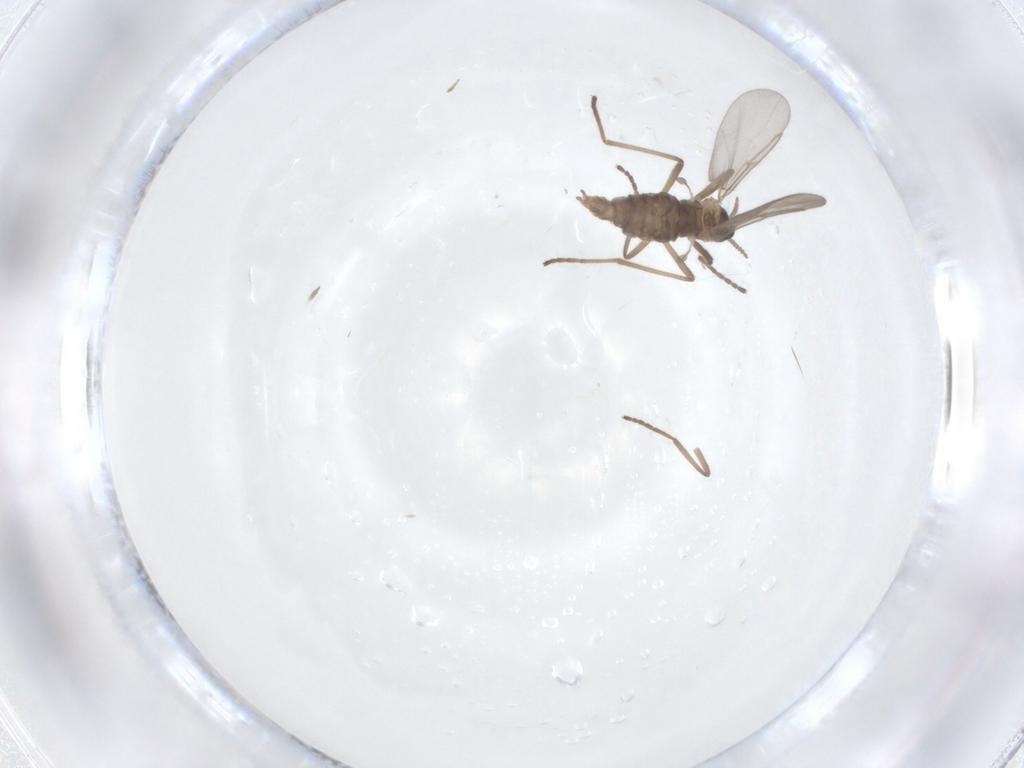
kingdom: Animalia
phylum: Arthropoda
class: Insecta
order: Diptera
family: Cecidomyiidae
